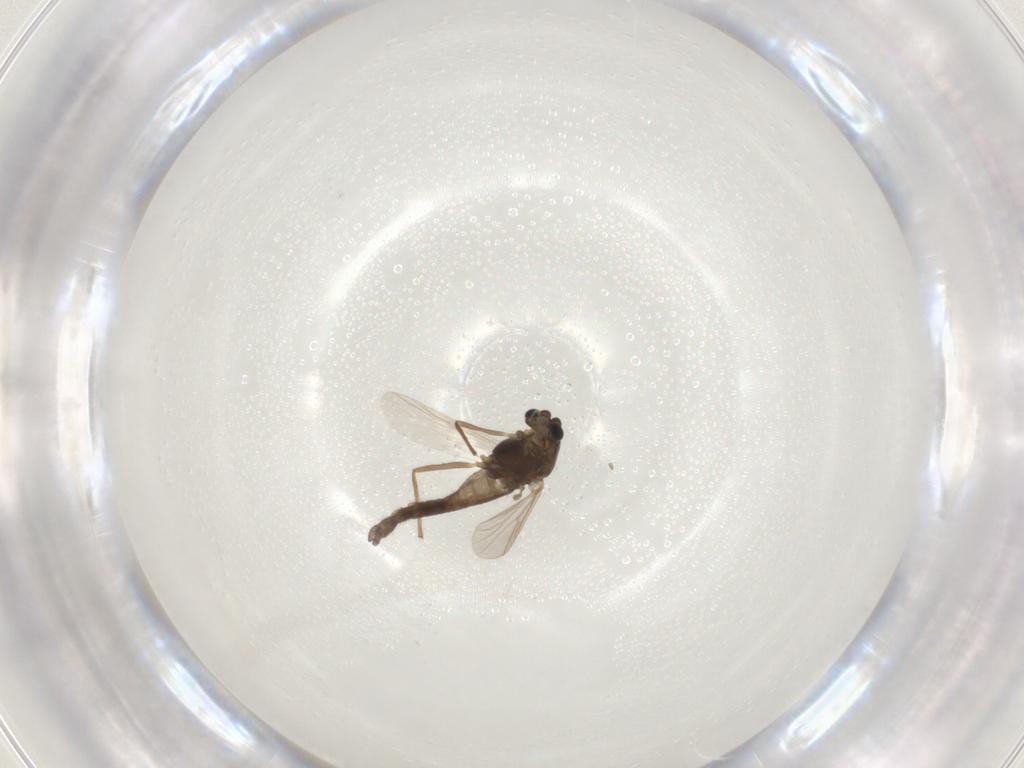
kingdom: Animalia
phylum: Arthropoda
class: Insecta
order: Diptera
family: Chironomidae
